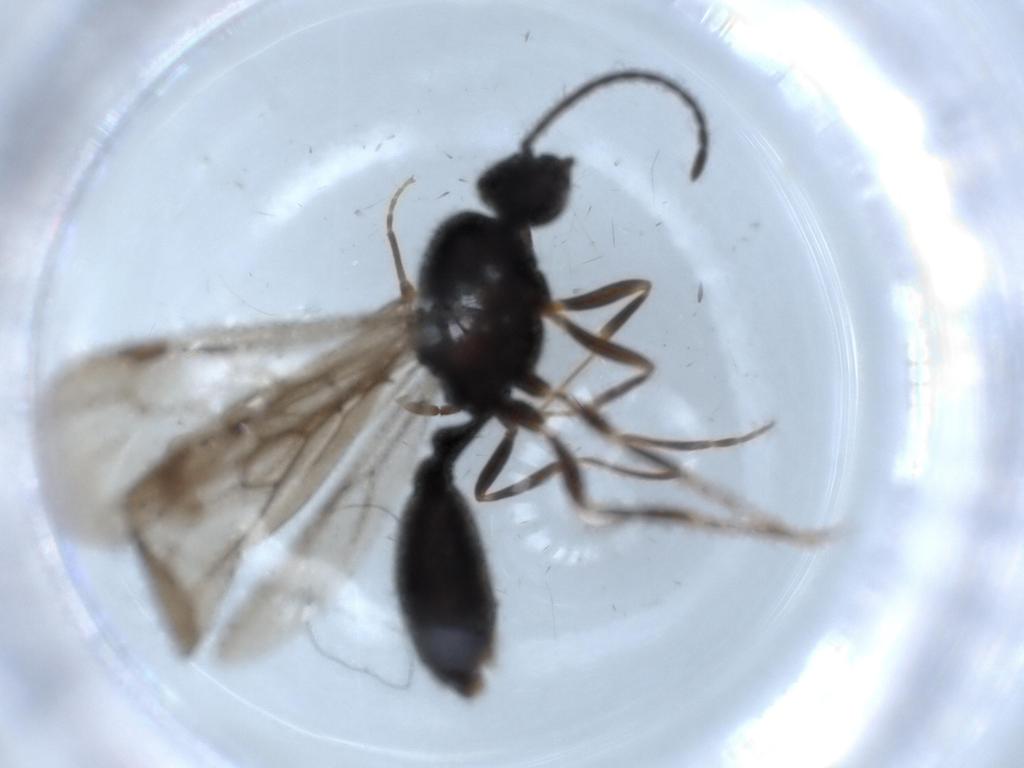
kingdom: Animalia
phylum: Arthropoda
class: Insecta
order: Hymenoptera
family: Formicidae
